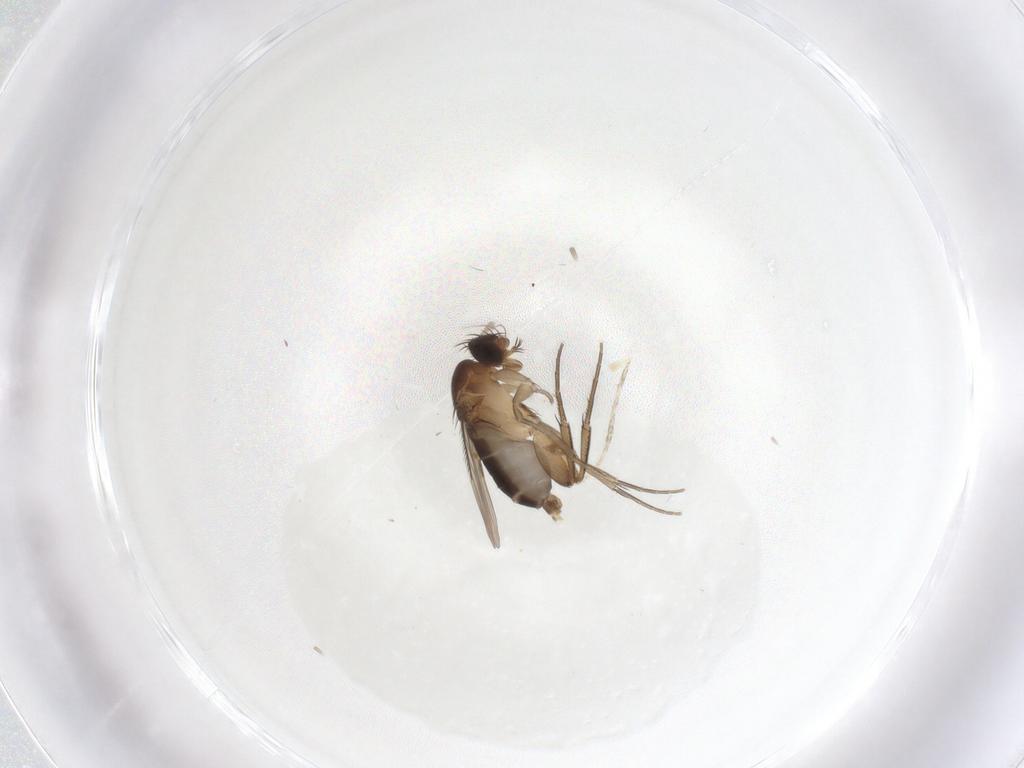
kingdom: Animalia
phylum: Arthropoda
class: Insecta
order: Diptera
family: Phoridae
